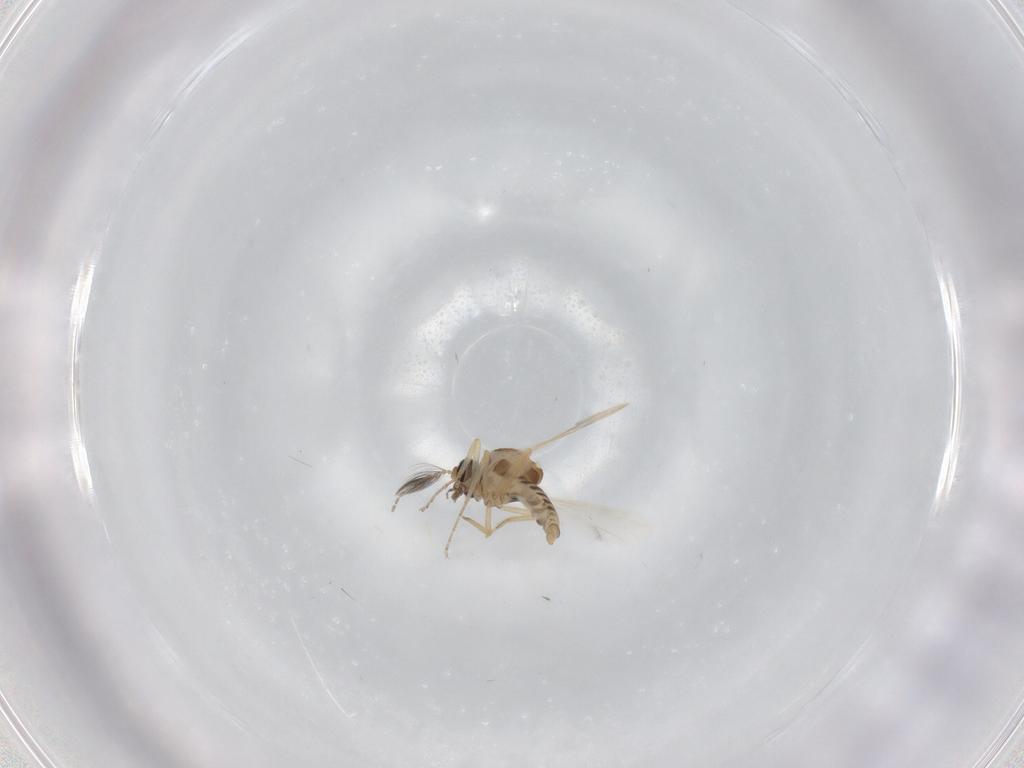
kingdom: Animalia
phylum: Arthropoda
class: Insecta
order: Diptera
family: Ceratopogonidae
